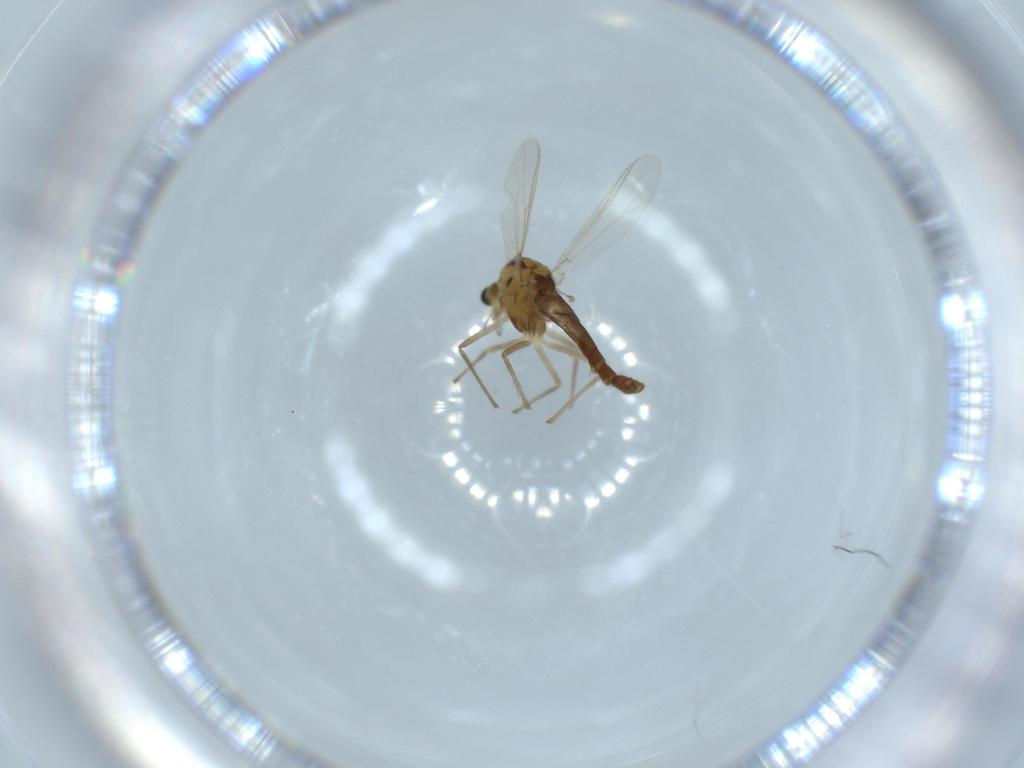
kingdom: Animalia
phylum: Arthropoda
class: Insecta
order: Diptera
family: Chironomidae
